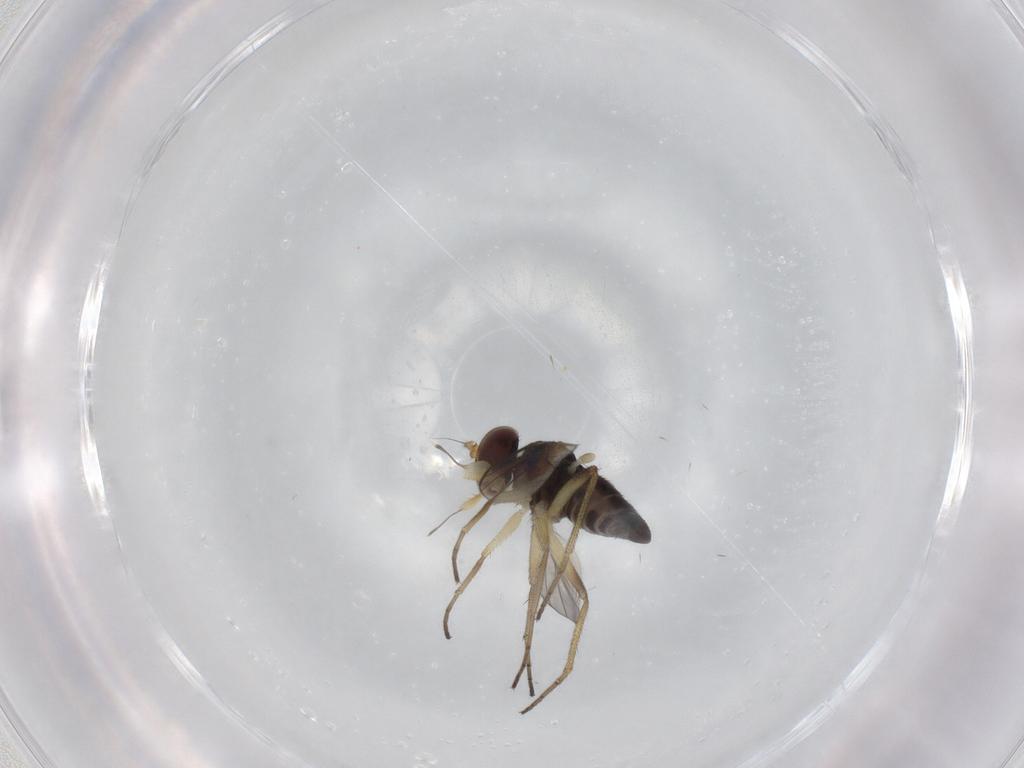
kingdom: Animalia
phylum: Arthropoda
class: Insecta
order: Diptera
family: Dolichopodidae
